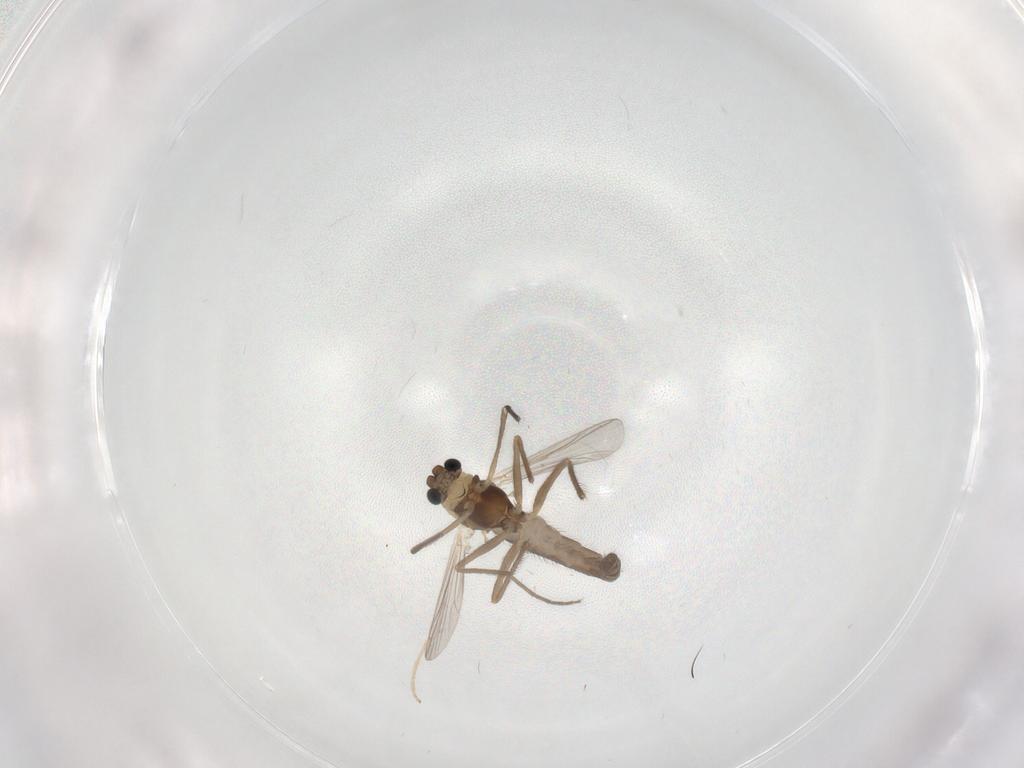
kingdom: Animalia
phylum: Arthropoda
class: Insecta
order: Diptera
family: Chironomidae
